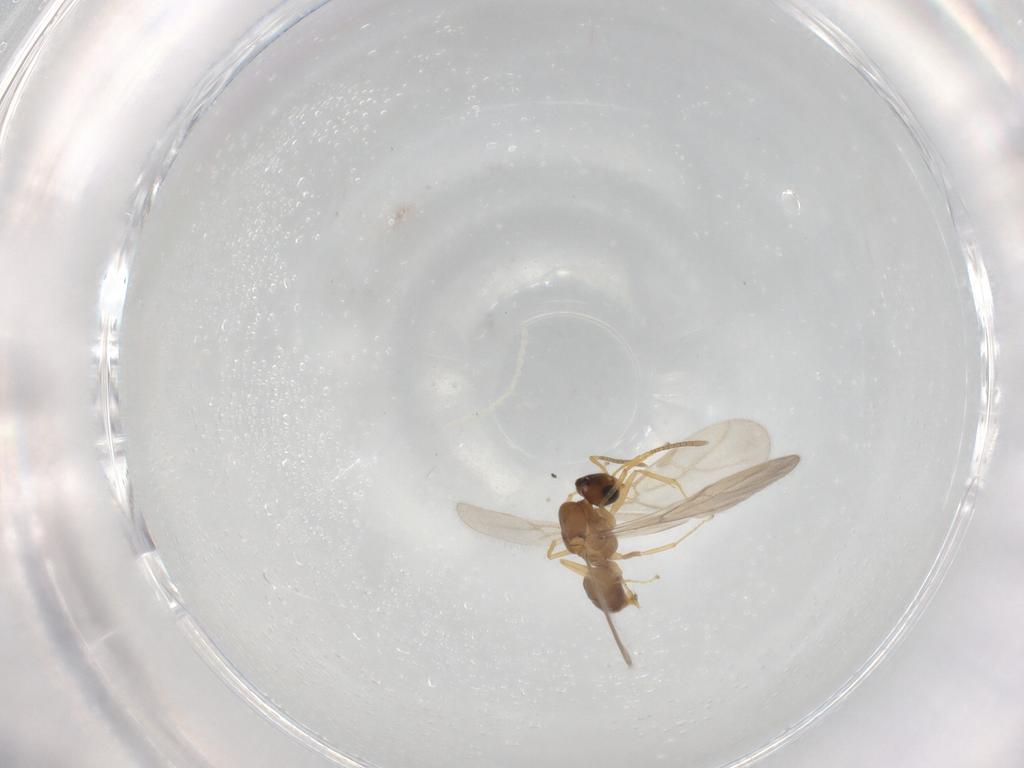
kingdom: Animalia
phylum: Arthropoda
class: Insecta
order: Hymenoptera
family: Formicidae
